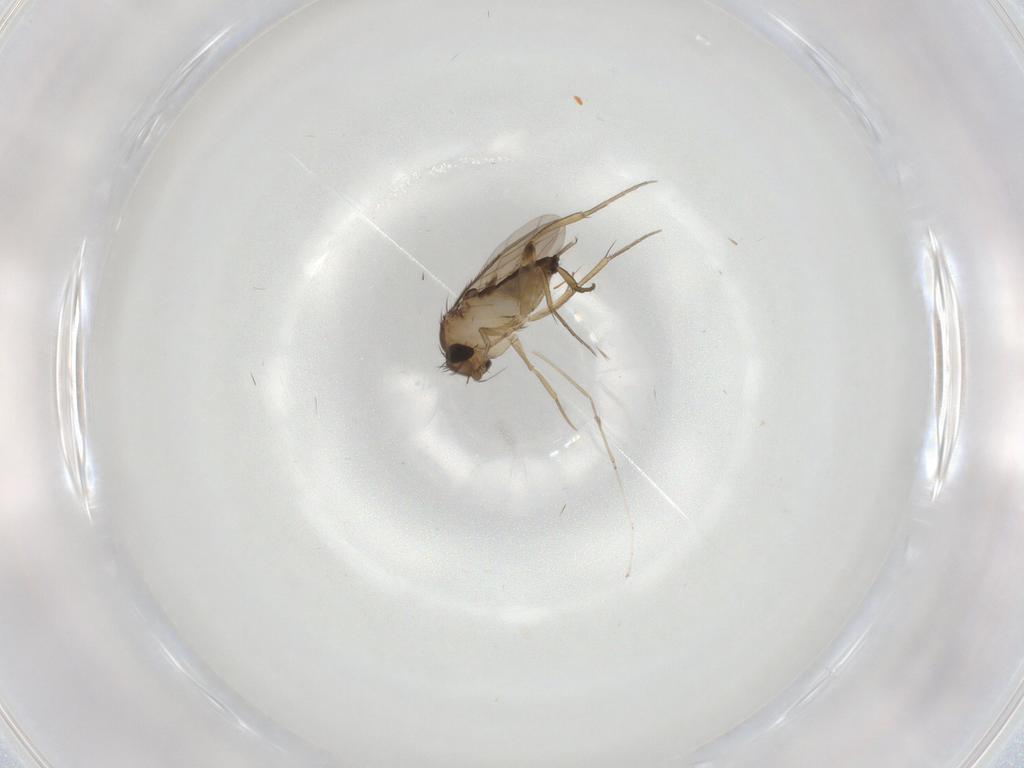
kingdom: Animalia
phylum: Arthropoda
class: Insecta
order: Diptera
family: Phoridae
